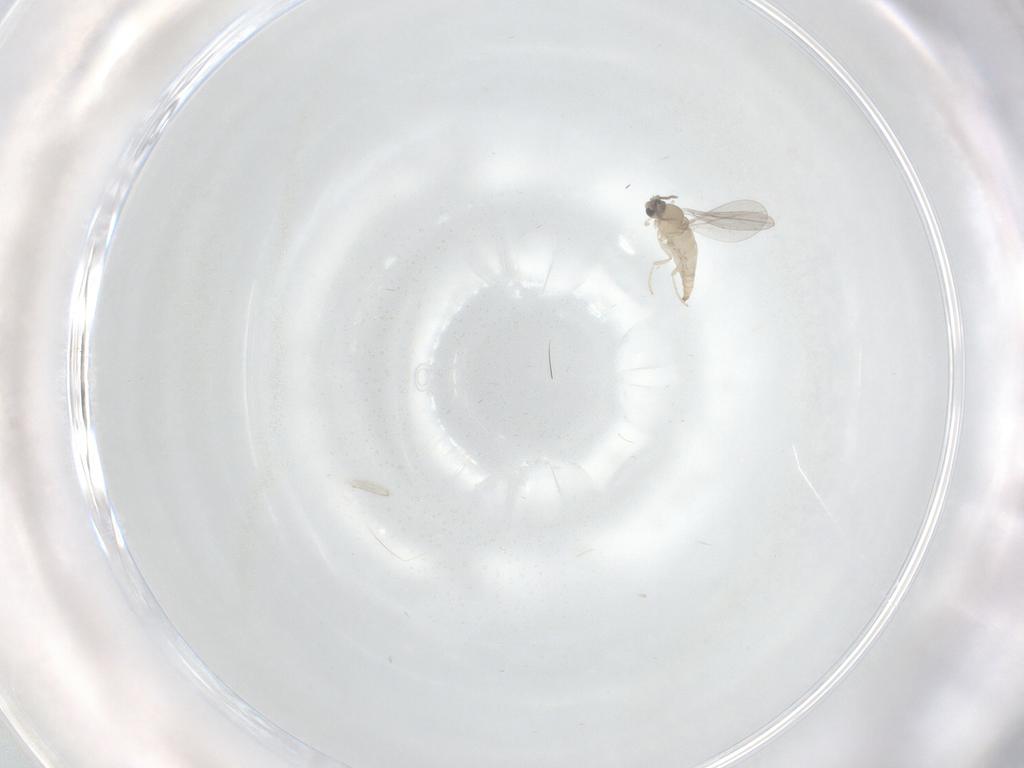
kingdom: Animalia
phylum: Arthropoda
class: Insecta
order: Diptera
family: Cecidomyiidae
